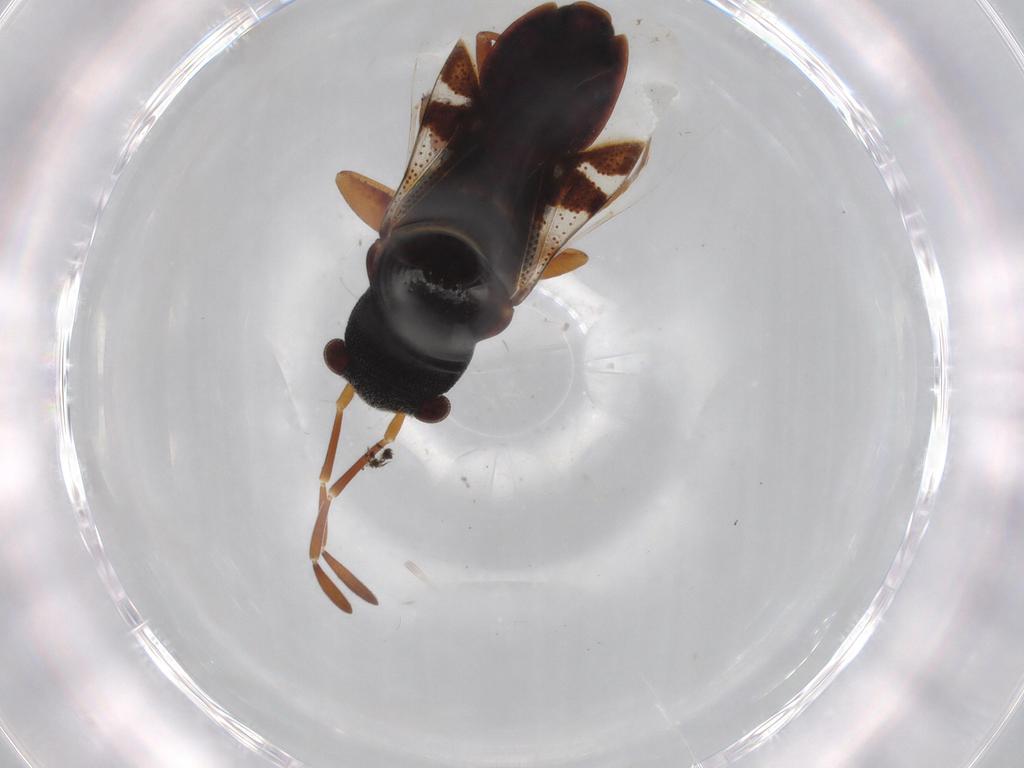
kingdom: Animalia
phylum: Arthropoda
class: Insecta
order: Hemiptera
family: Rhyparochromidae
